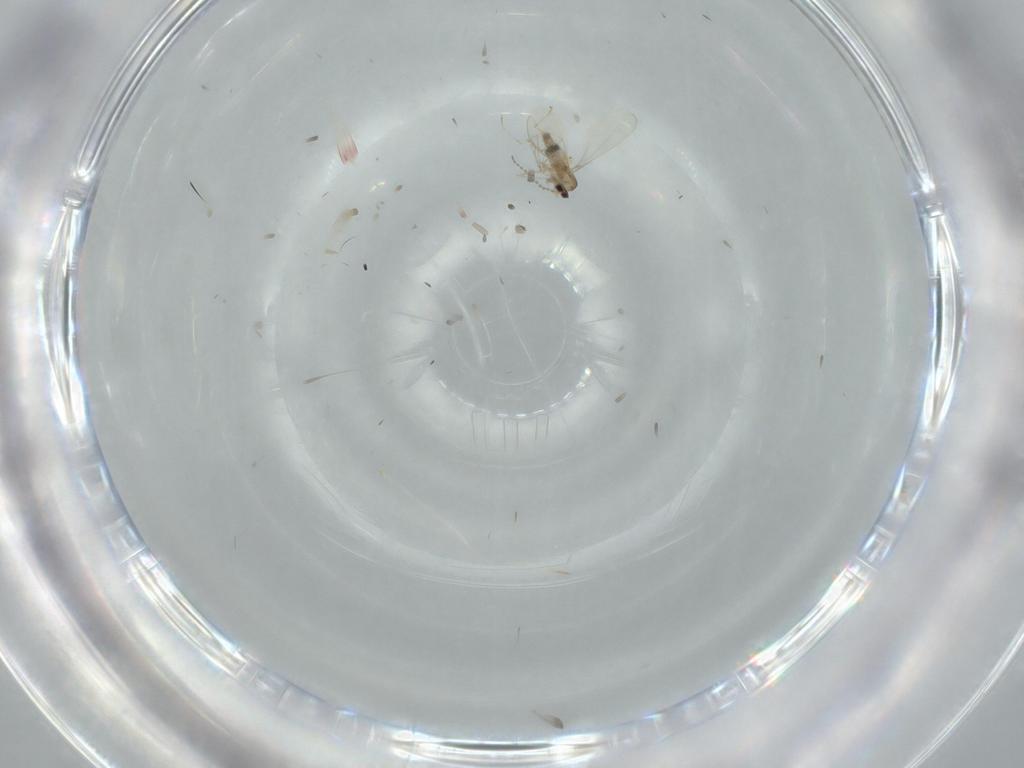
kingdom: Animalia
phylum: Arthropoda
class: Insecta
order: Diptera
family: Cecidomyiidae
